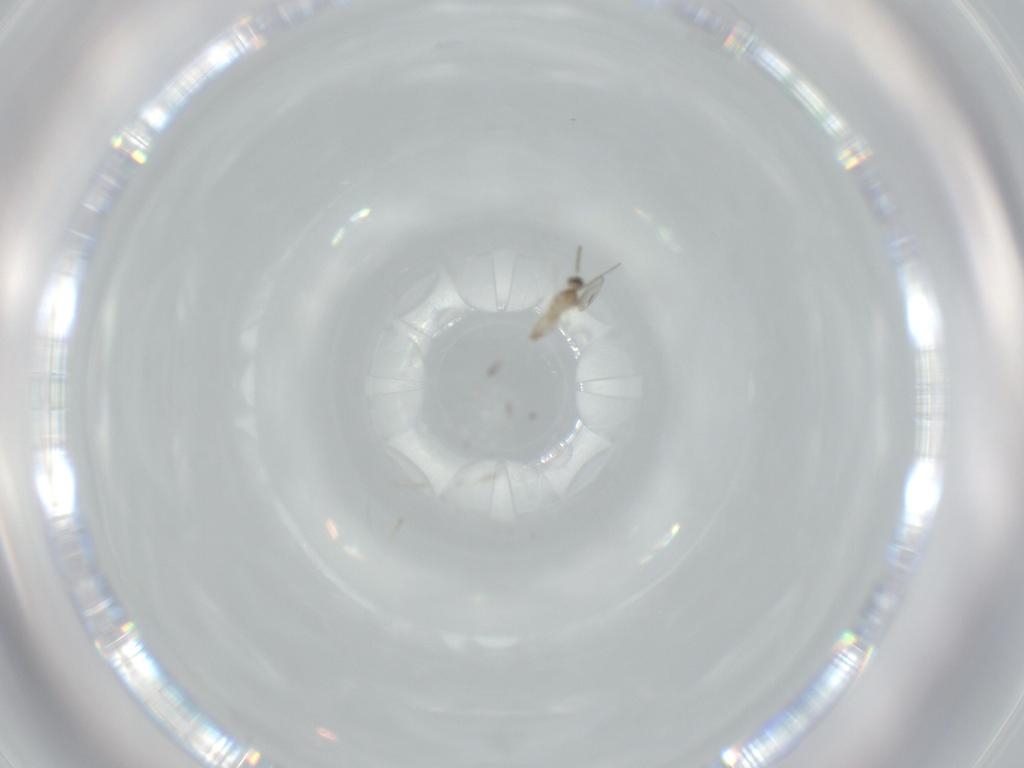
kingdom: Animalia
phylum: Arthropoda
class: Insecta
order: Diptera
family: Cecidomyiidae
